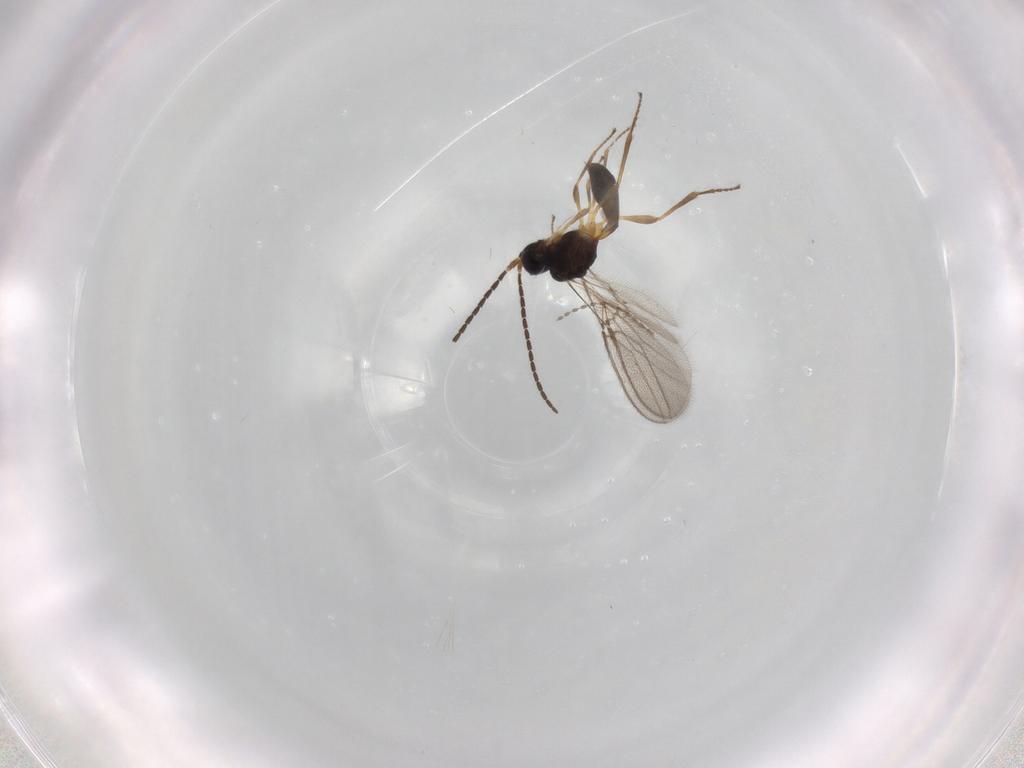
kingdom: Animalia
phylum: Arthropoda
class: Insecta
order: Hymenoptera
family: Braconidae
